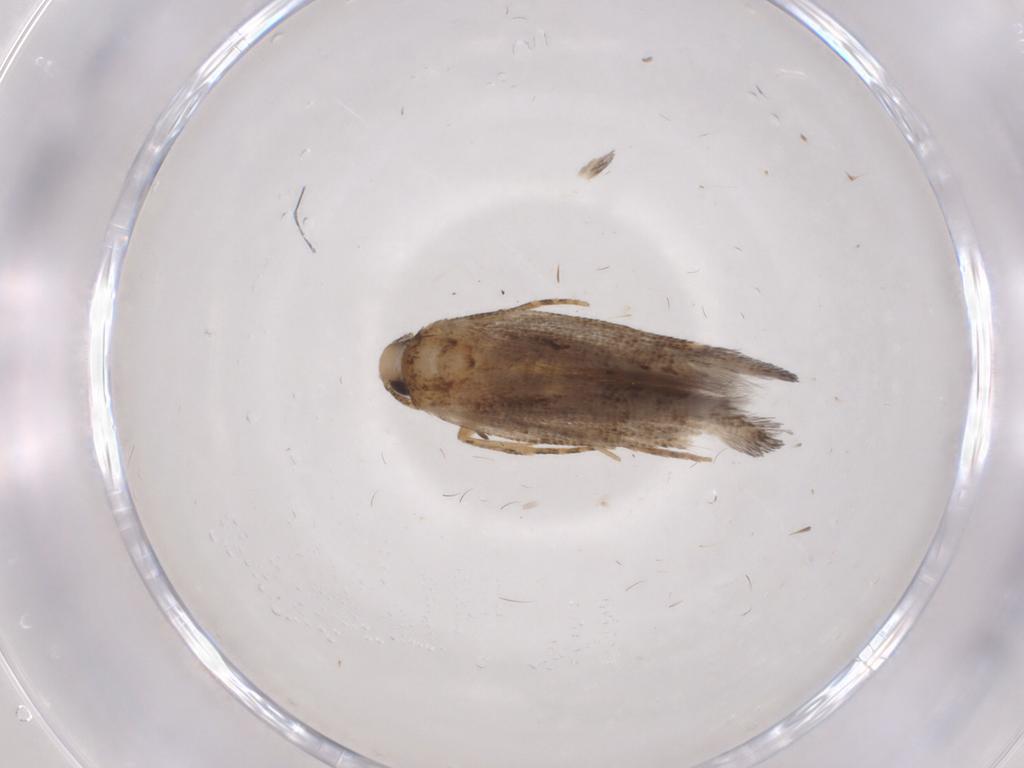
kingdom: Animalia
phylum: Arthropoda
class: Insecta
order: Lepidoptera
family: Cosmopterigidae
